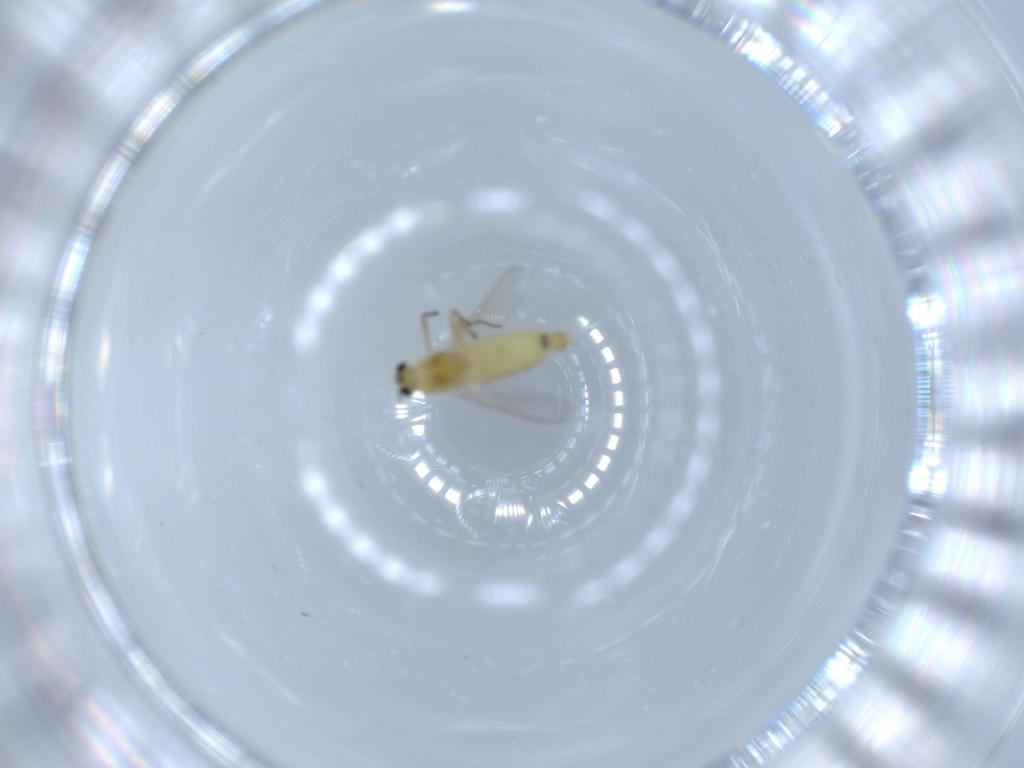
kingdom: Animalia
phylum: Arthropoda
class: Insecta
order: Diptera
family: Chironomidae
